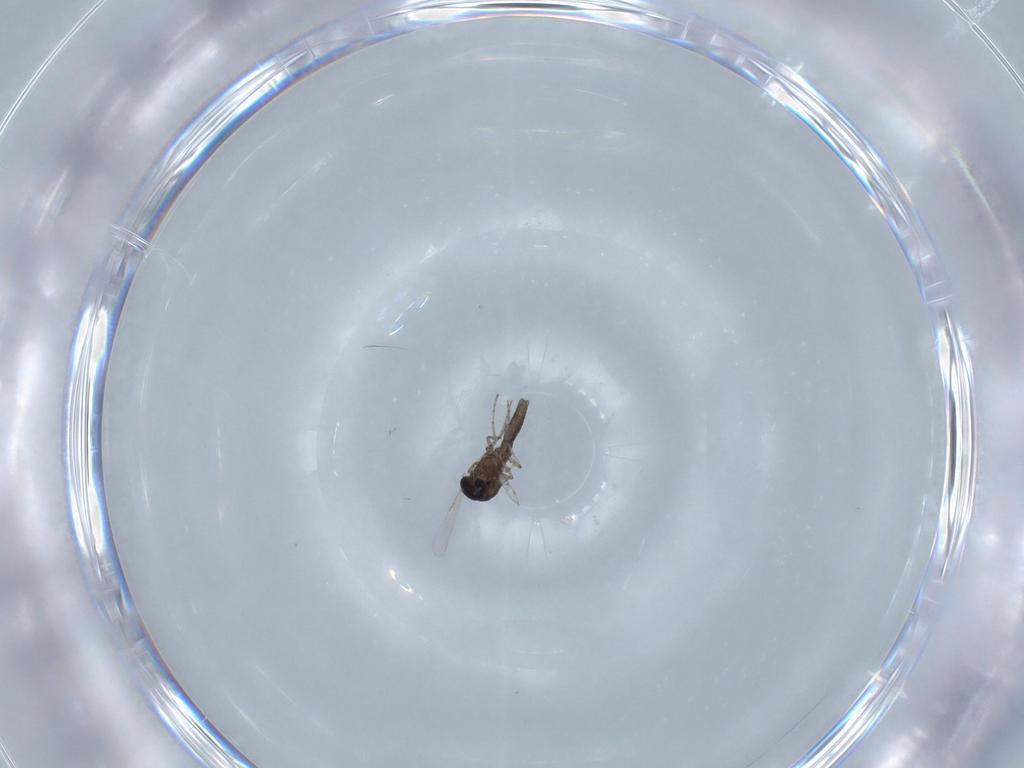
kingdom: Animalia
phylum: Arthropoda
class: Insecta
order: Diptera
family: Ceratopogonidae
